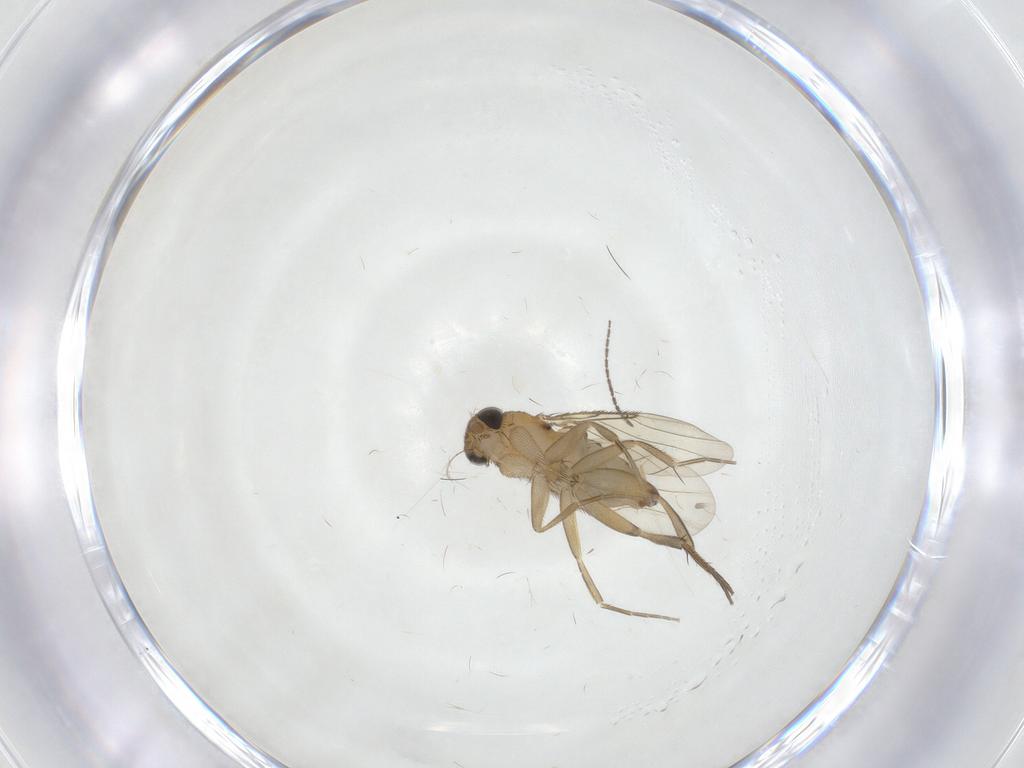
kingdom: Animalia
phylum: Arthropoda
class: Insecta
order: Diptera
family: Phoridae
